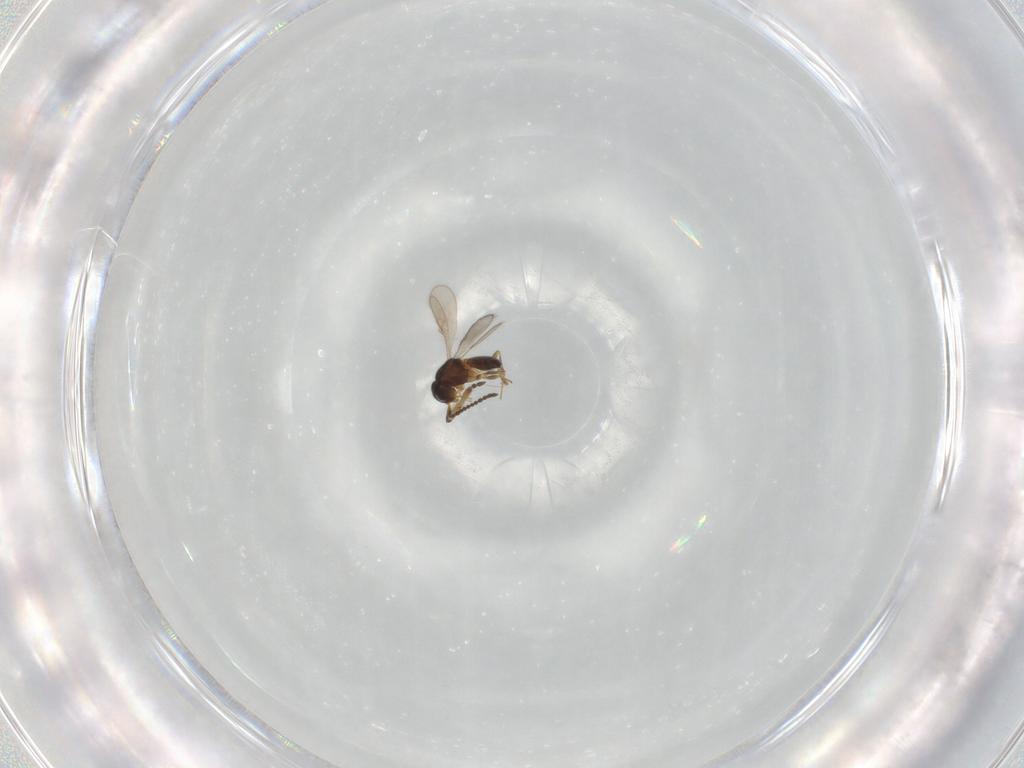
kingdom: Animalia
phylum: Arthropoda
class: Insecta
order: Hymenoptera
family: Scelionidae
